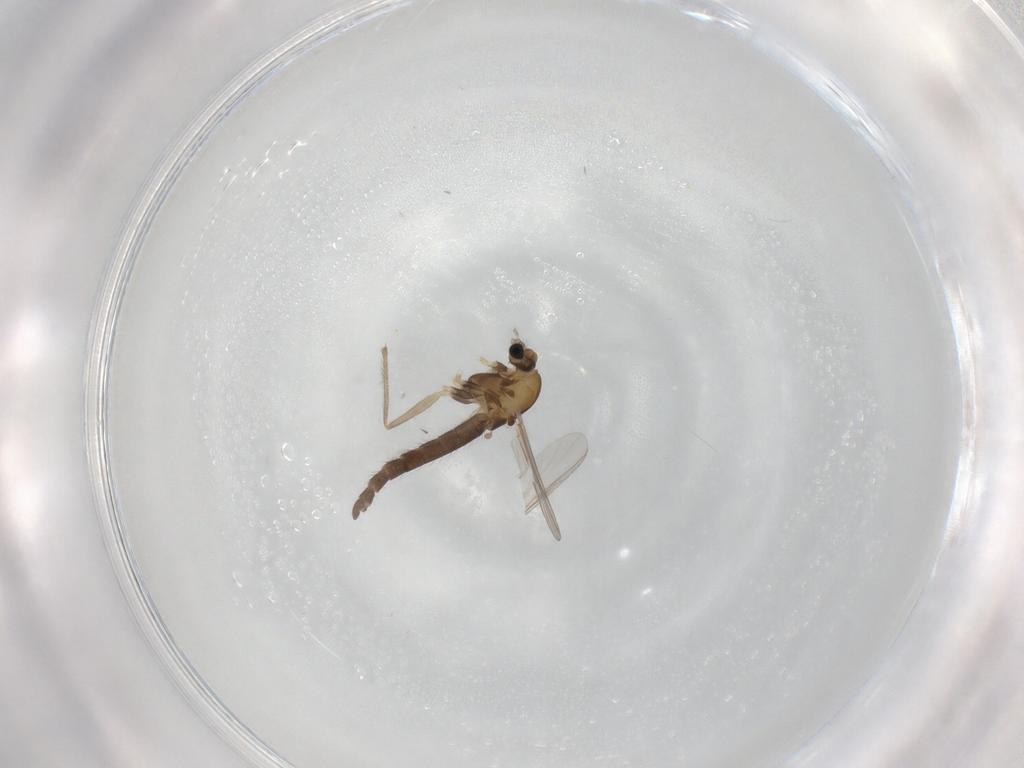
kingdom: Animalia
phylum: Arthropoda
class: Insecta
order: Diptera
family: Chironomidae
